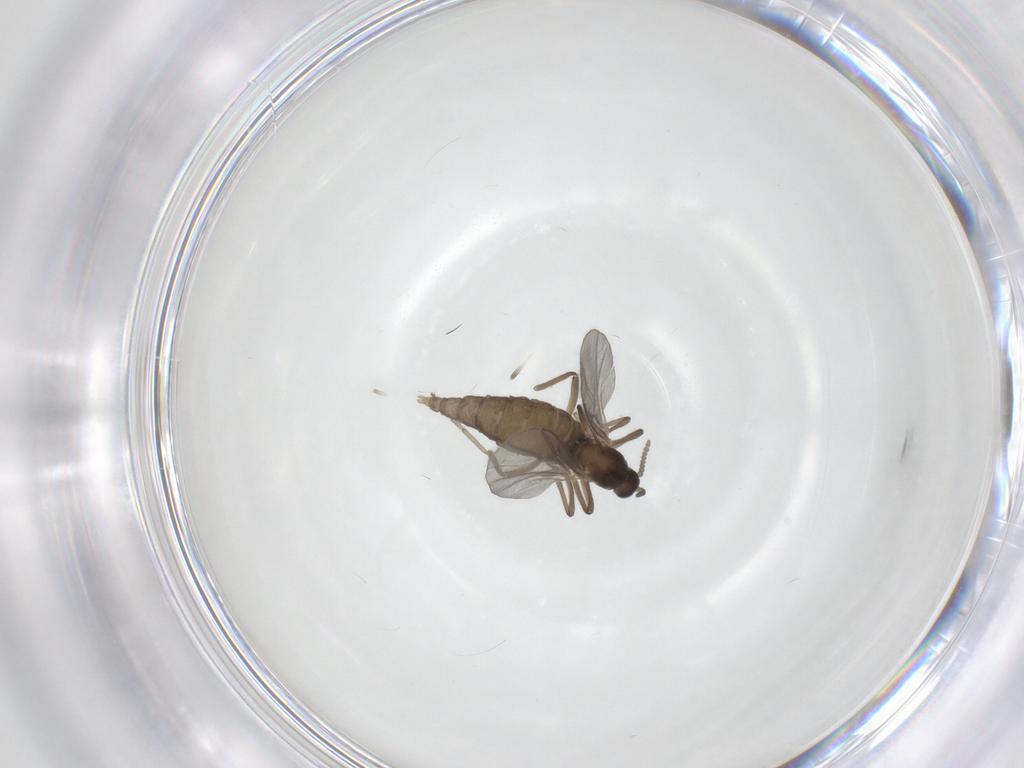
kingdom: Animalia
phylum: Arthropoda
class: Insecta
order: Diptera
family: Cecidomyiidae
